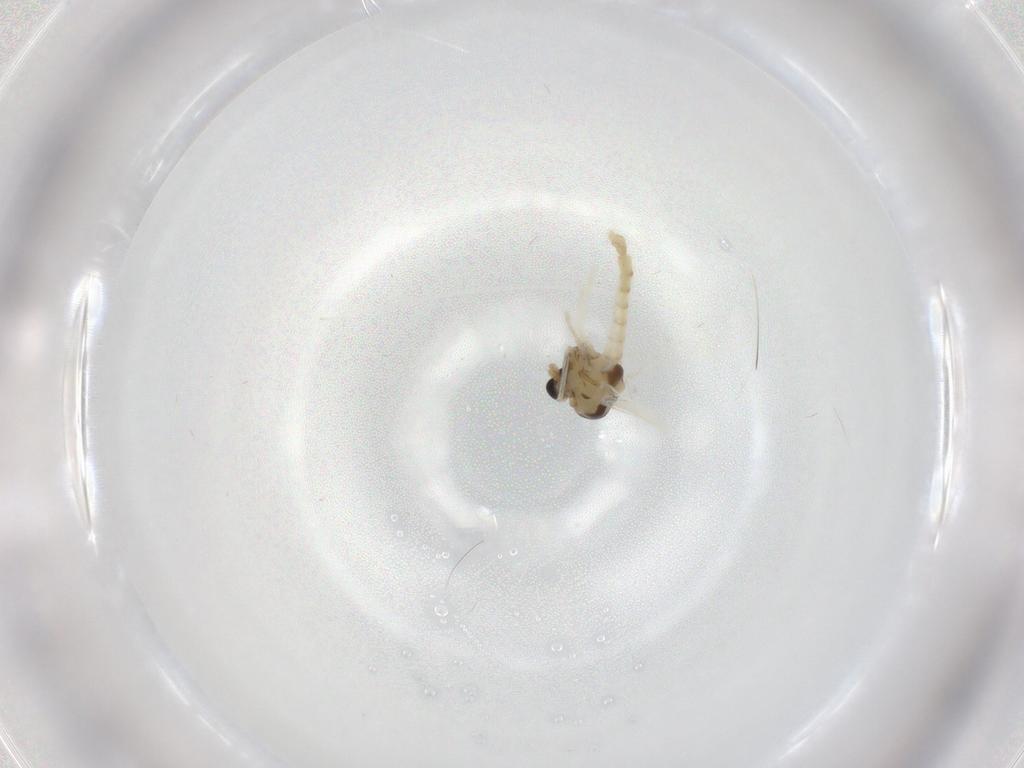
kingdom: Animalia
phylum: Arthropoda
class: Insecta
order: Diptera
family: Chironomidae
